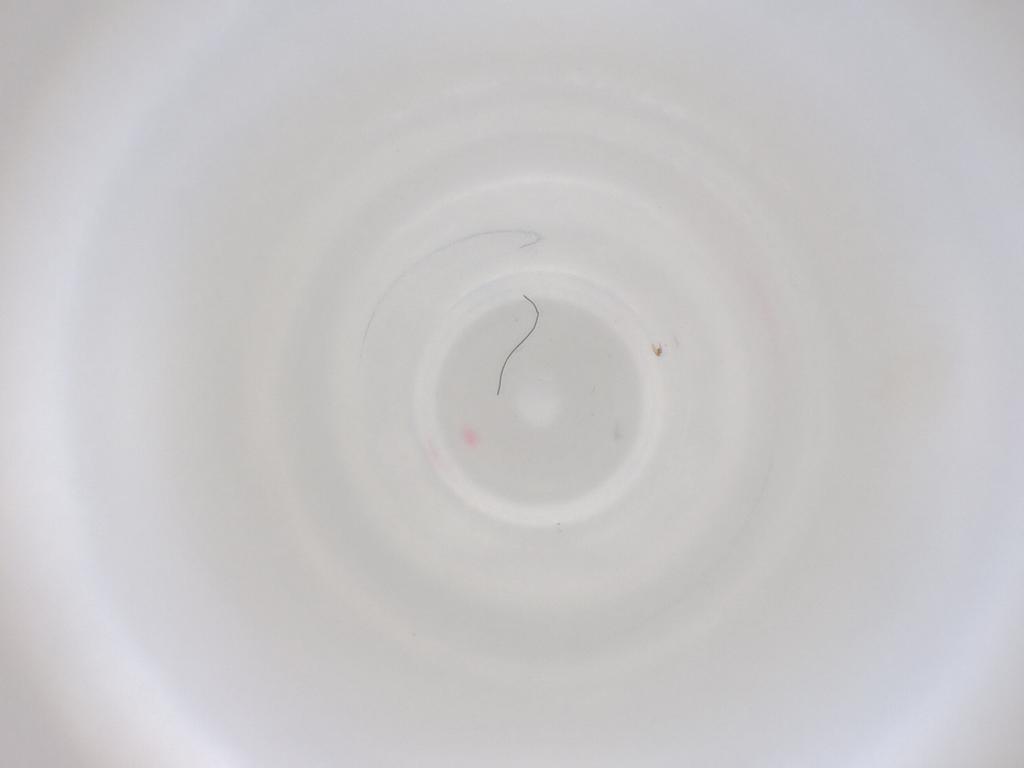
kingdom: Animalia
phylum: Arthropoda
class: Insecta
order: Diptera
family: Cecidomyiidae
